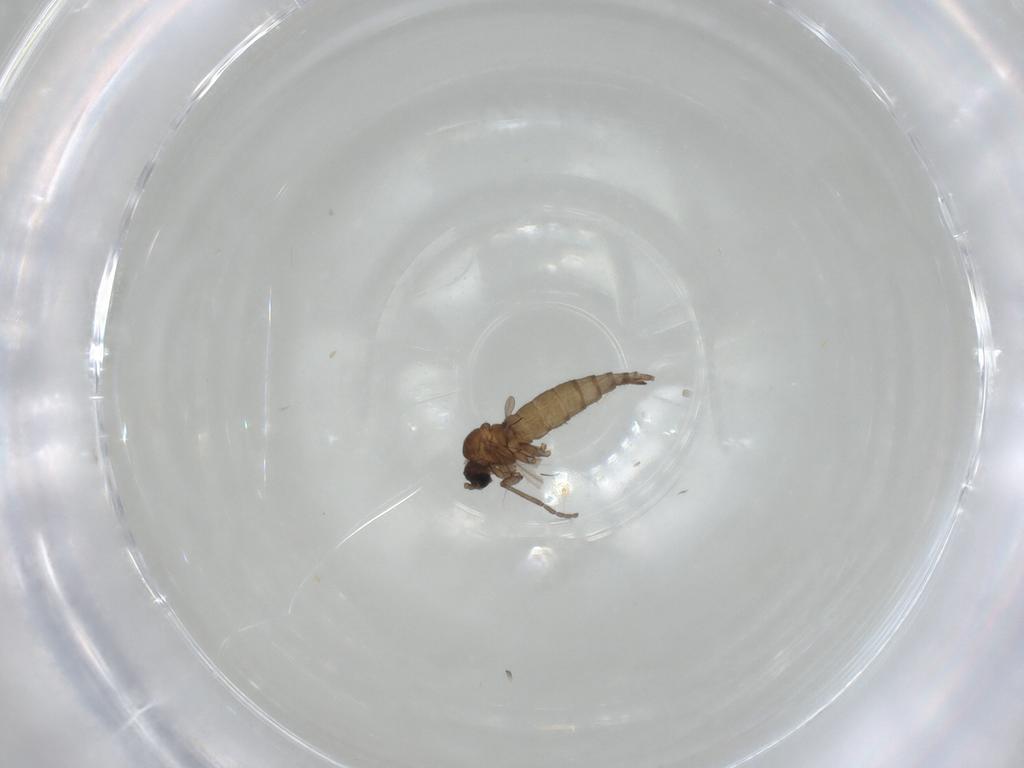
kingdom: Animalia
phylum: Arthropoda
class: Insecta
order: Diptera
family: Sciaridae
